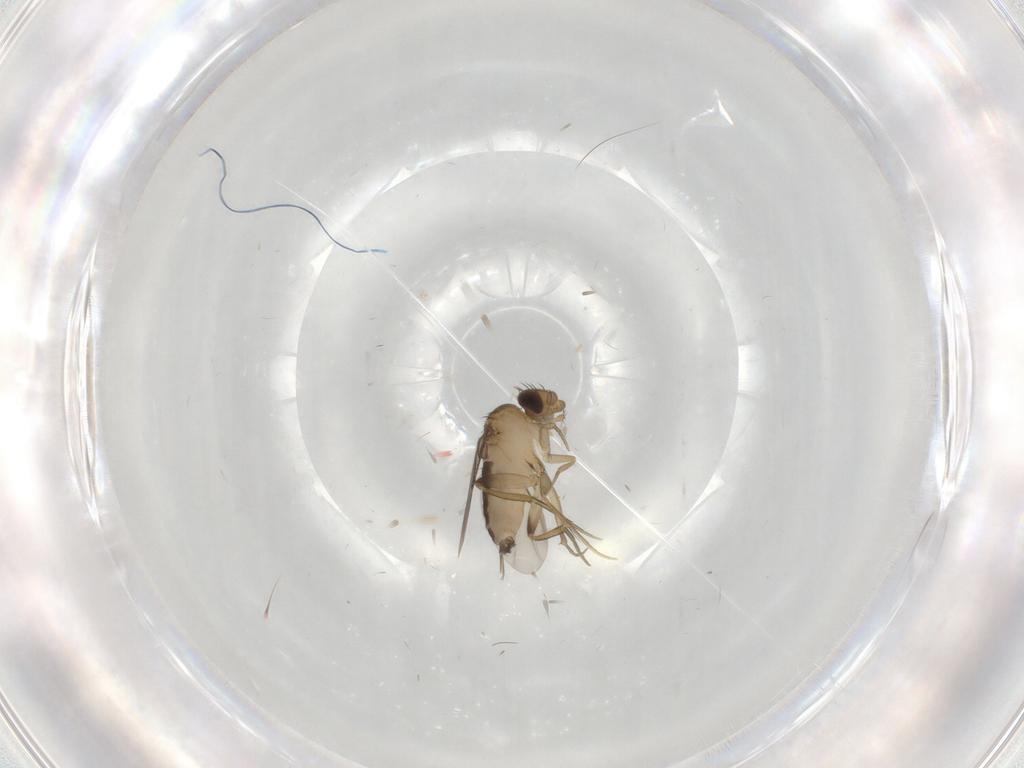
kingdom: Animalia
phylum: Arthropoda
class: Insecta
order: Diptera
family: Phoridae
